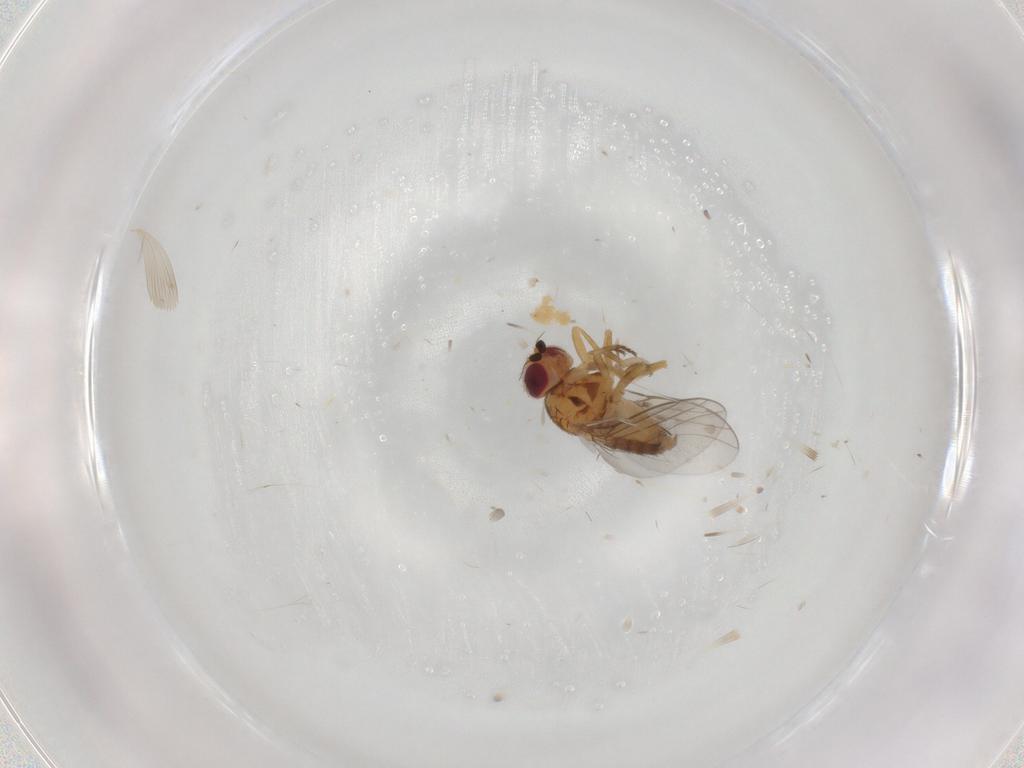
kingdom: Animalia
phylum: Arthropoda
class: Insecta
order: Diptera
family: Chloropidae
